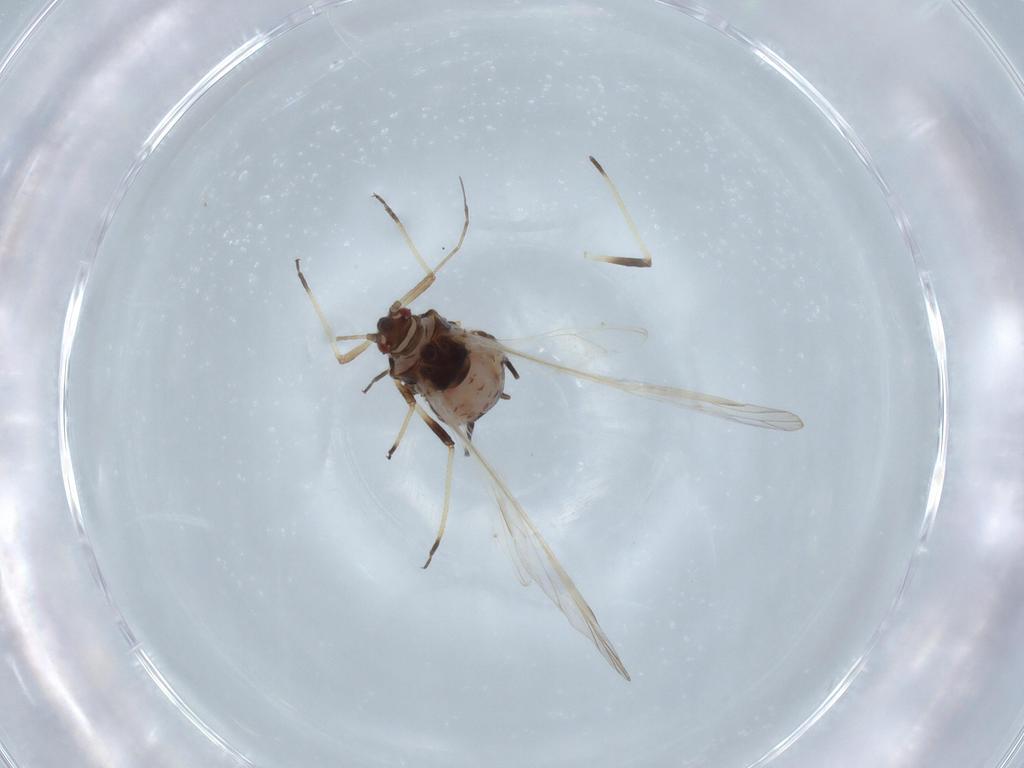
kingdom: Animalia
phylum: Arthropoda
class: Insecta
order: Hemiptera
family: Aphididae
